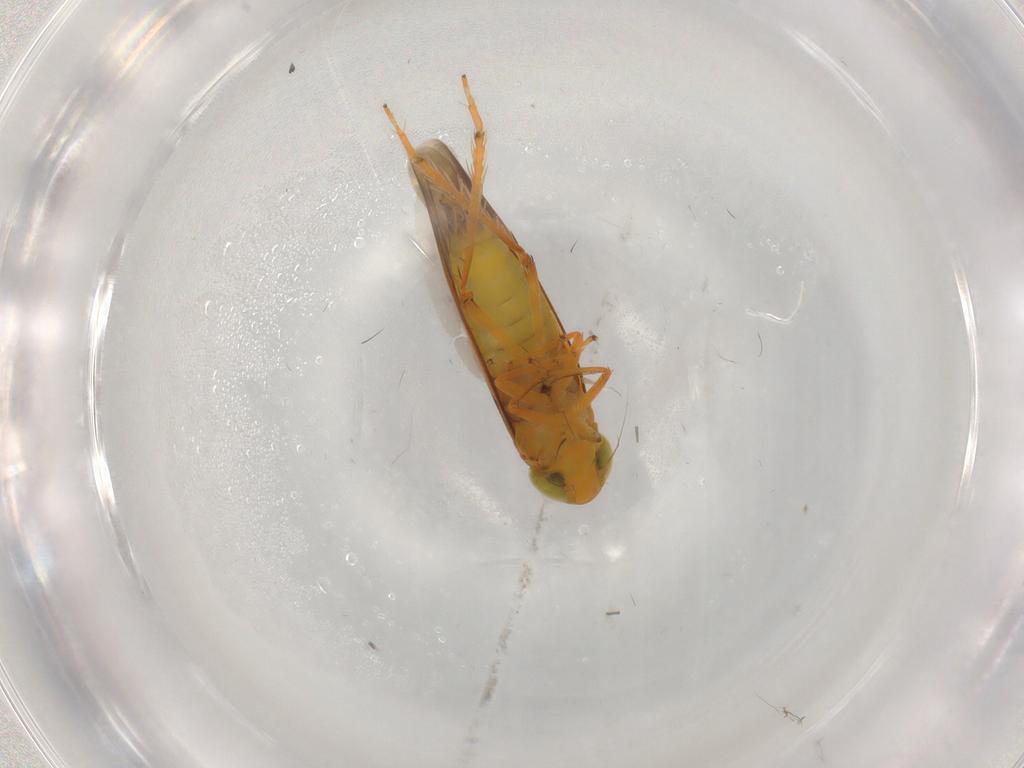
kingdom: Animalia
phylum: Arthropoda
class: Insecta
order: Hemiptera
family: Cicadellidae
